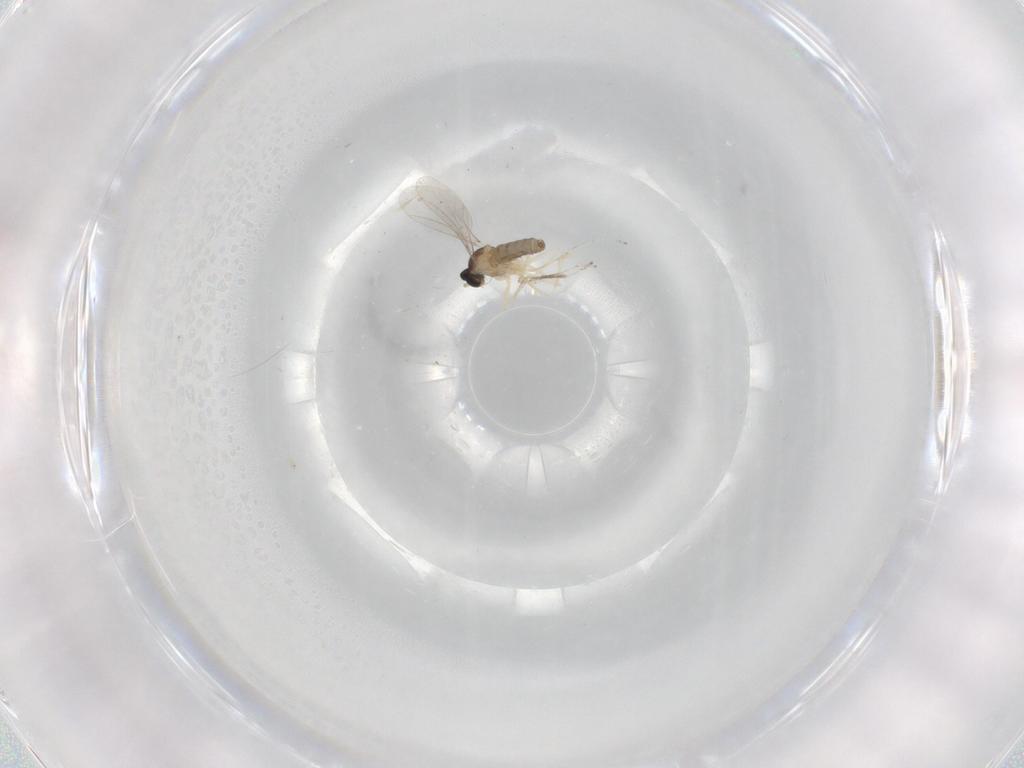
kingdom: Animalia
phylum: Arthropoda
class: Insecta
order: Diptera
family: Cecidomyiidae
